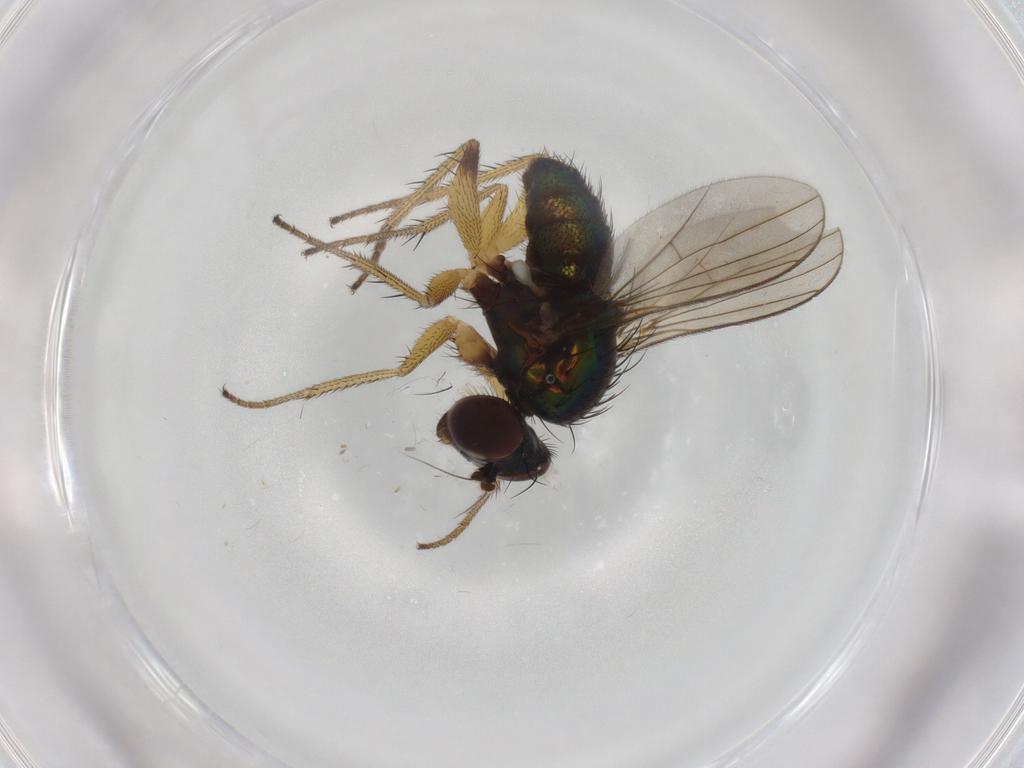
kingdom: Animalia
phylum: Arthropoda
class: Insecta
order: Diptera
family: Dolichopodidae
